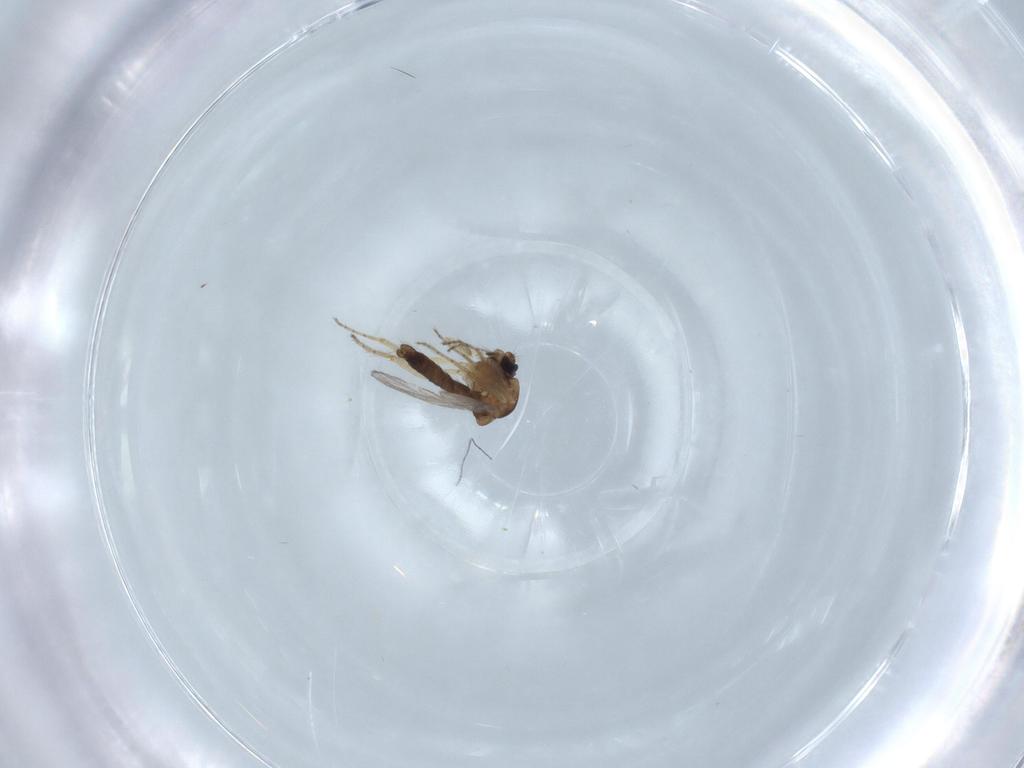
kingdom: Animalia
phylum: Arthropoda
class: Insecta
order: Diptera
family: Ceratopogonidae
